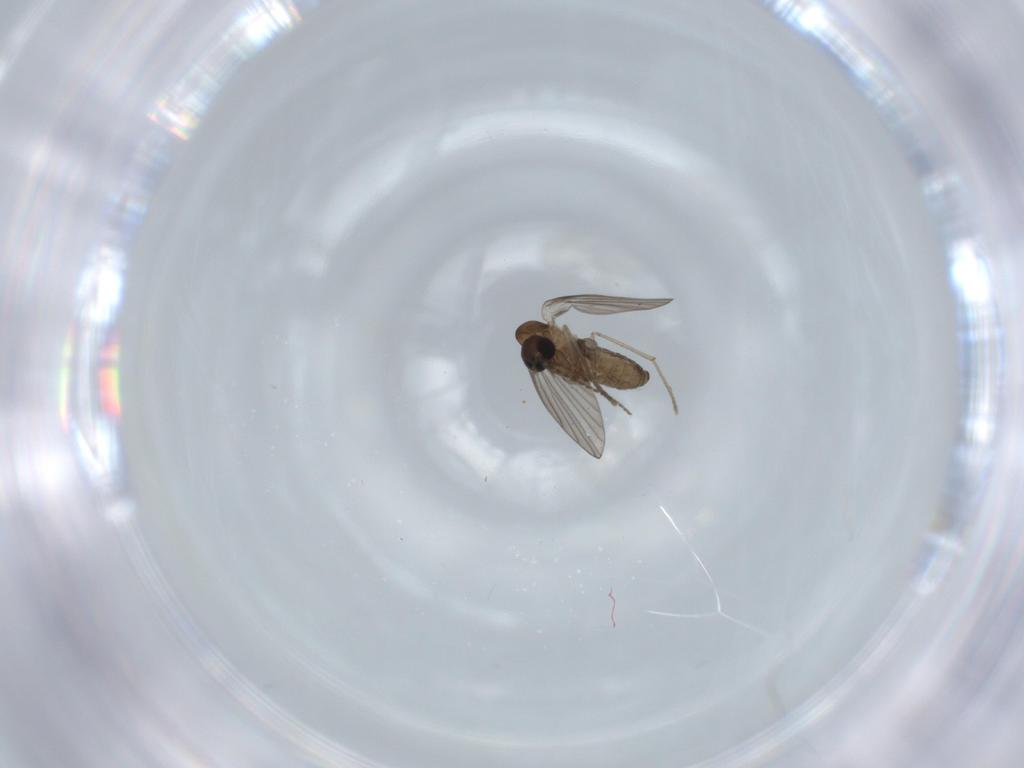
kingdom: Animalia
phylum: Arthropoda
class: Insecta
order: Diptera
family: Psychodidae
